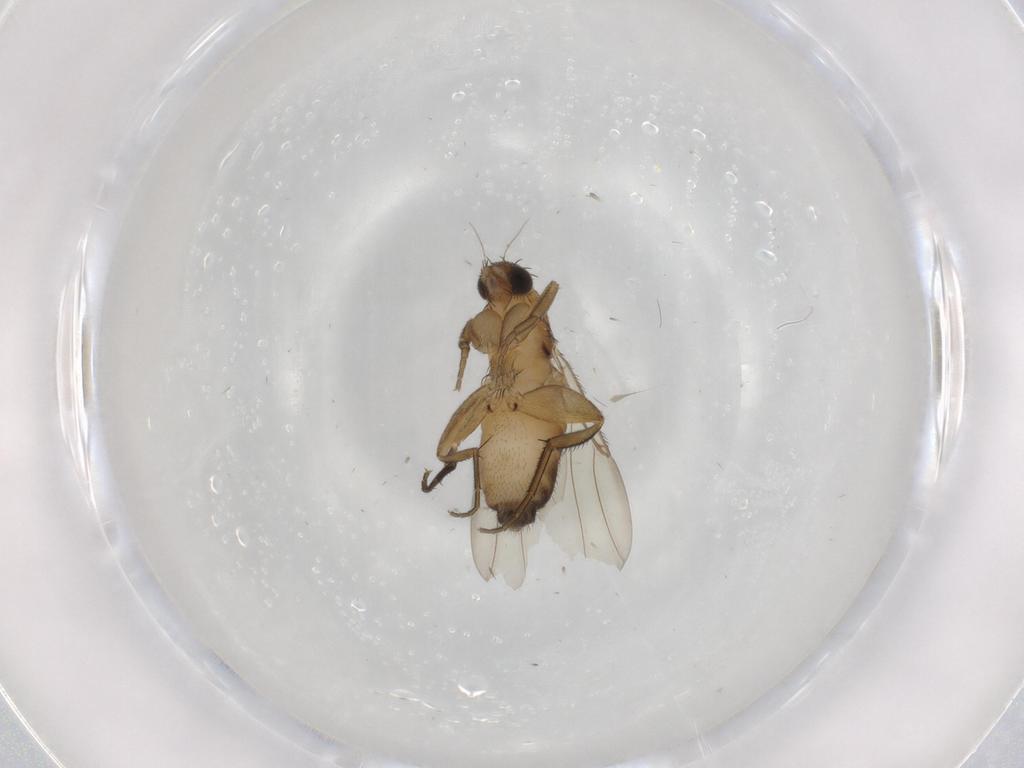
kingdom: Animalia
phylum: Arthropoda
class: Insecta
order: Diptera
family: Phoridae
